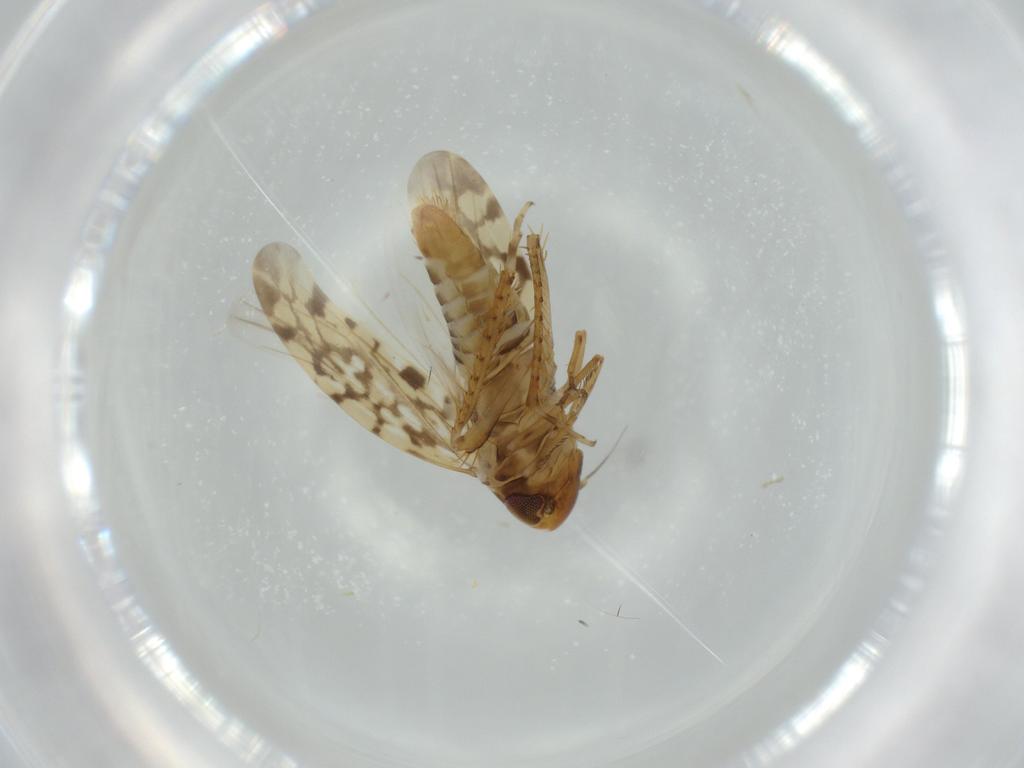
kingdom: Animalia
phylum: Arthropoda
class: Insecta
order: Hemiptera
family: Cicadellidae
